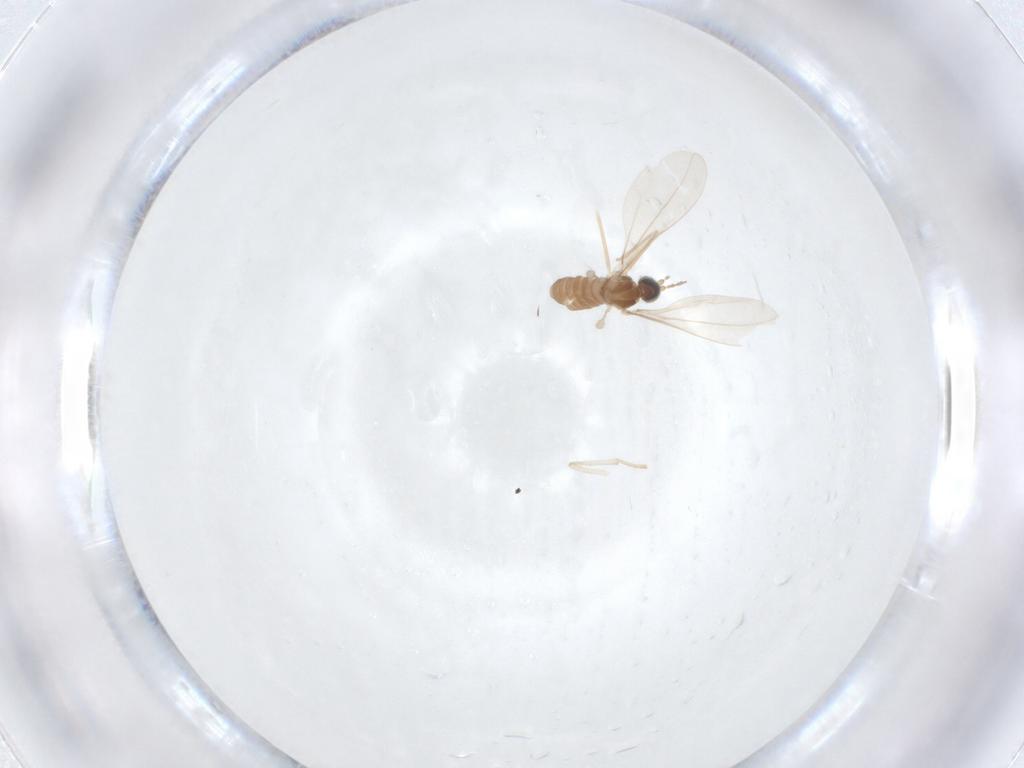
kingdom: Animalia
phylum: Arthropoda
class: Insecta
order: Diptera
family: Cecidomyiidae
